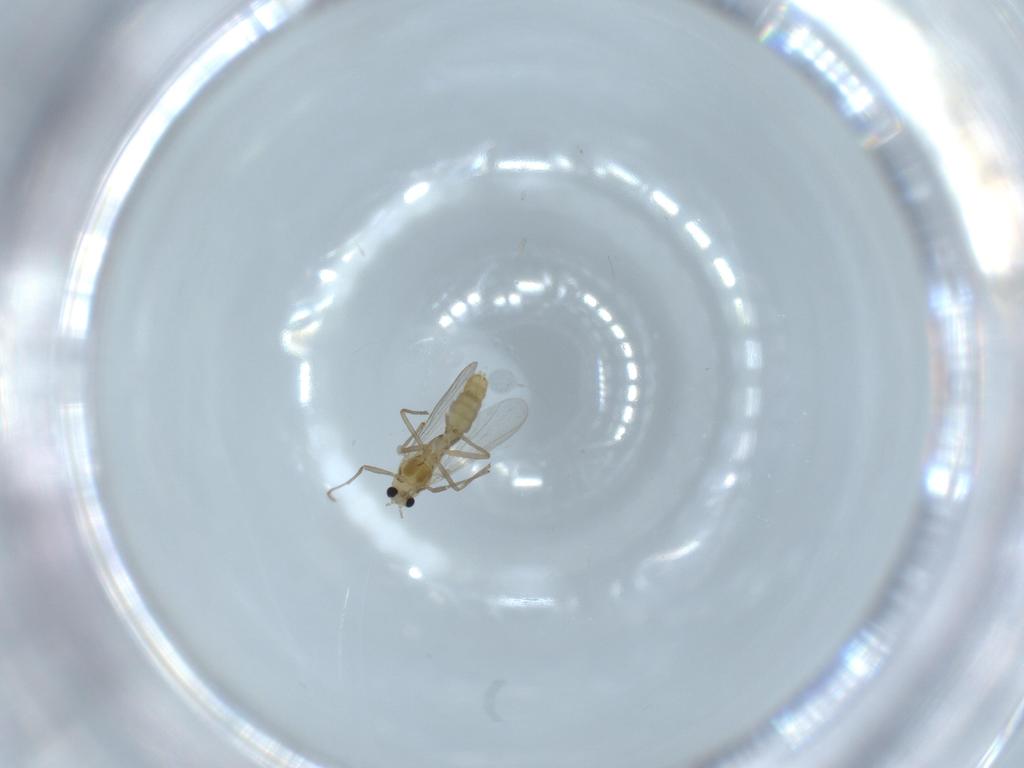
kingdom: Animalia
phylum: Arthropoda
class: Insecta
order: Diptera
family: Chironomidae
